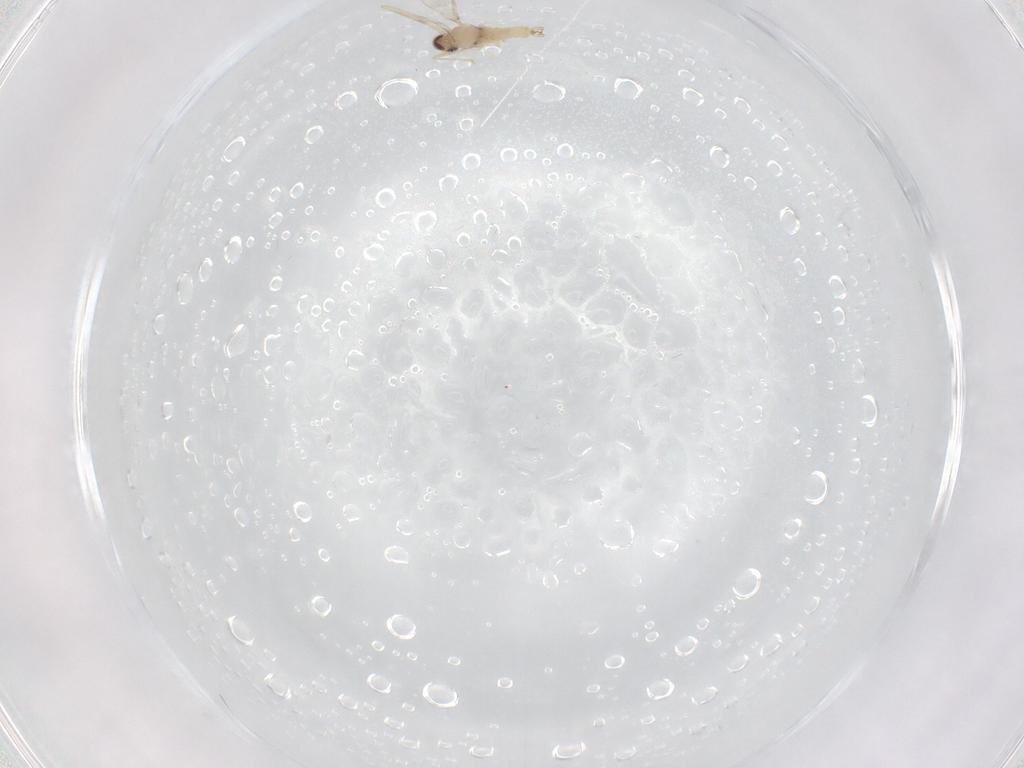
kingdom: Animalia
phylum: Arthropoda
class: Insecta
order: Diptera
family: Cecidomyiidae
